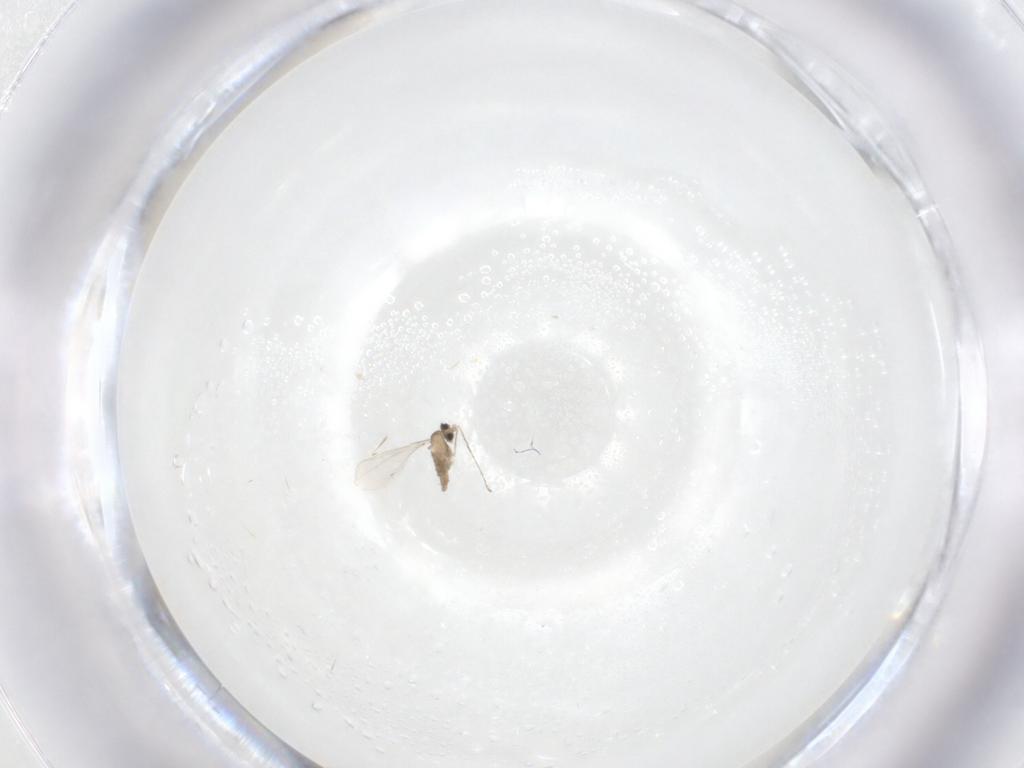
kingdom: Animalia
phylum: Arthropoda
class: Insecta
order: Diptera
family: Cecidomyiidae
